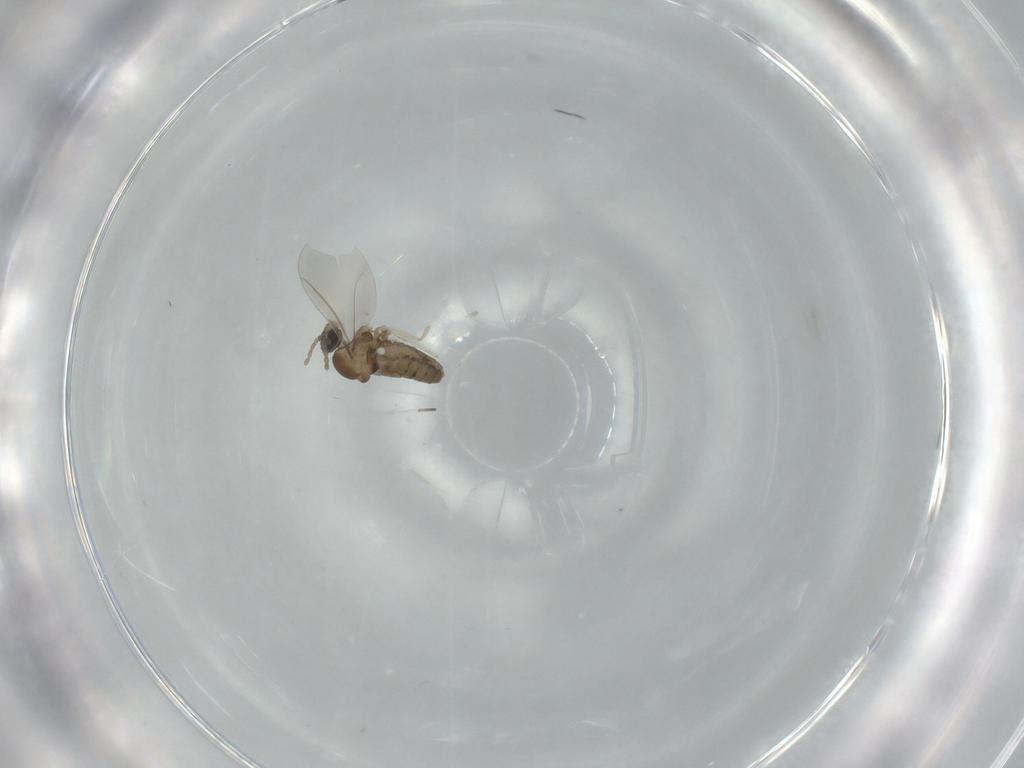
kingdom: Animalia
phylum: Arthropoda
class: Insecta
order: Diptera
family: Cecidomyiidae
